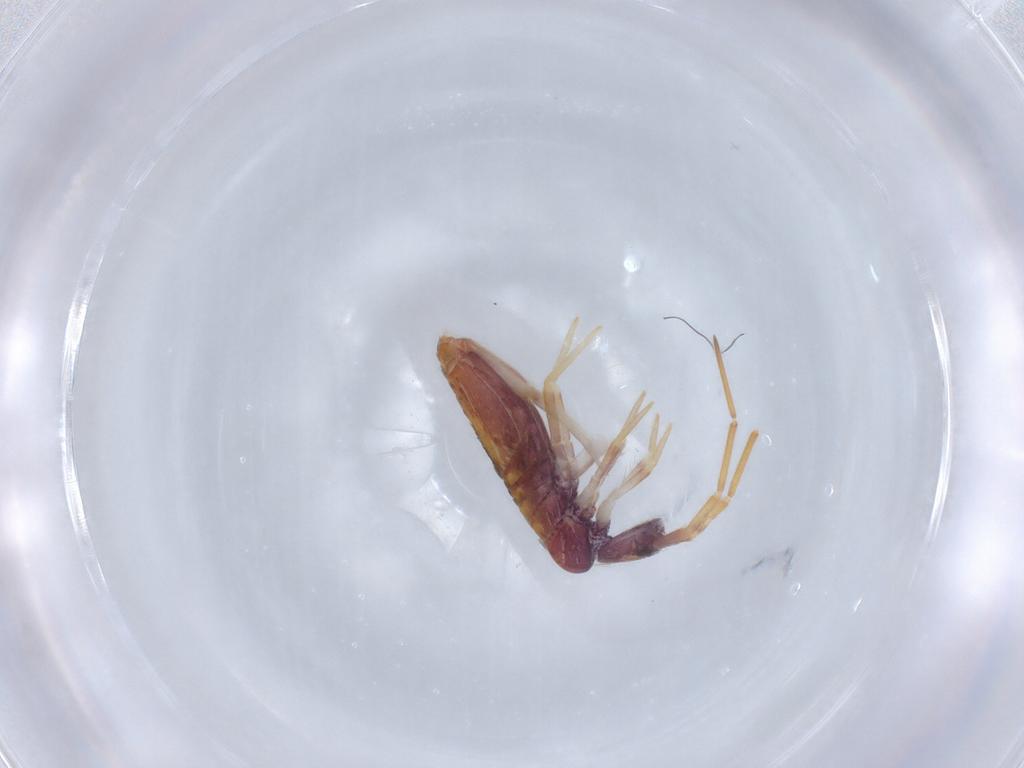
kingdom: Animalia
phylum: Arthropoda
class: Collembola
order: Entomobryomorpha
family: Entomobryidae
